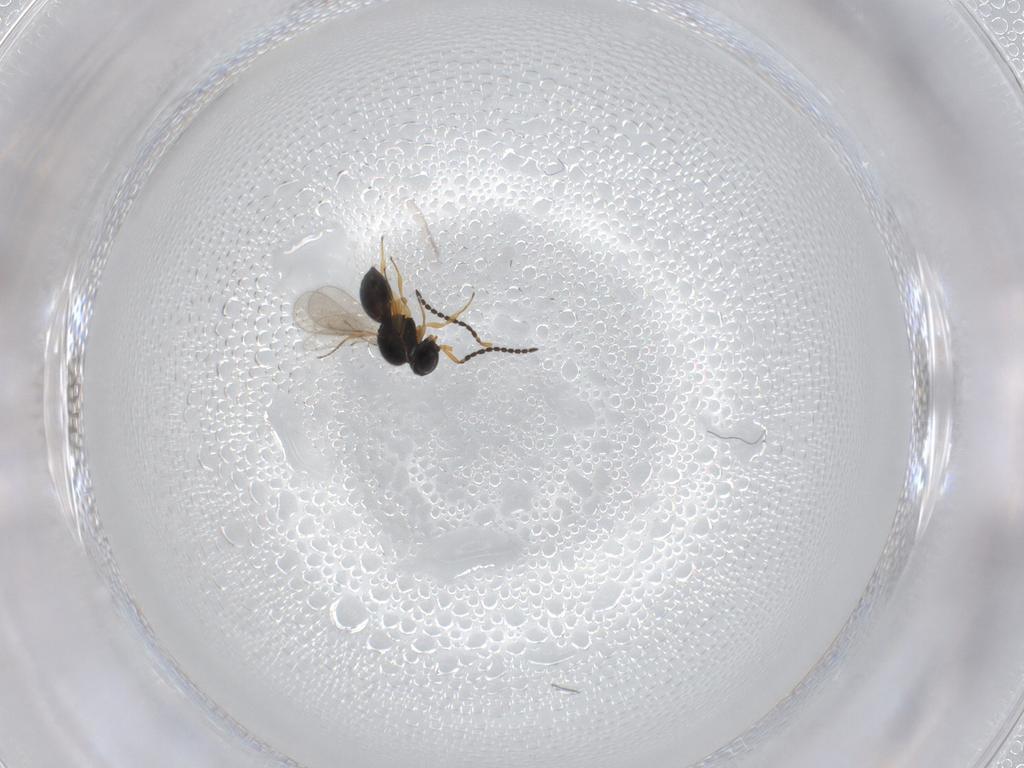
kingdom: Animalia
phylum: Arthropoda
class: Insecta
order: Hymenoptera
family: Scelionidae
